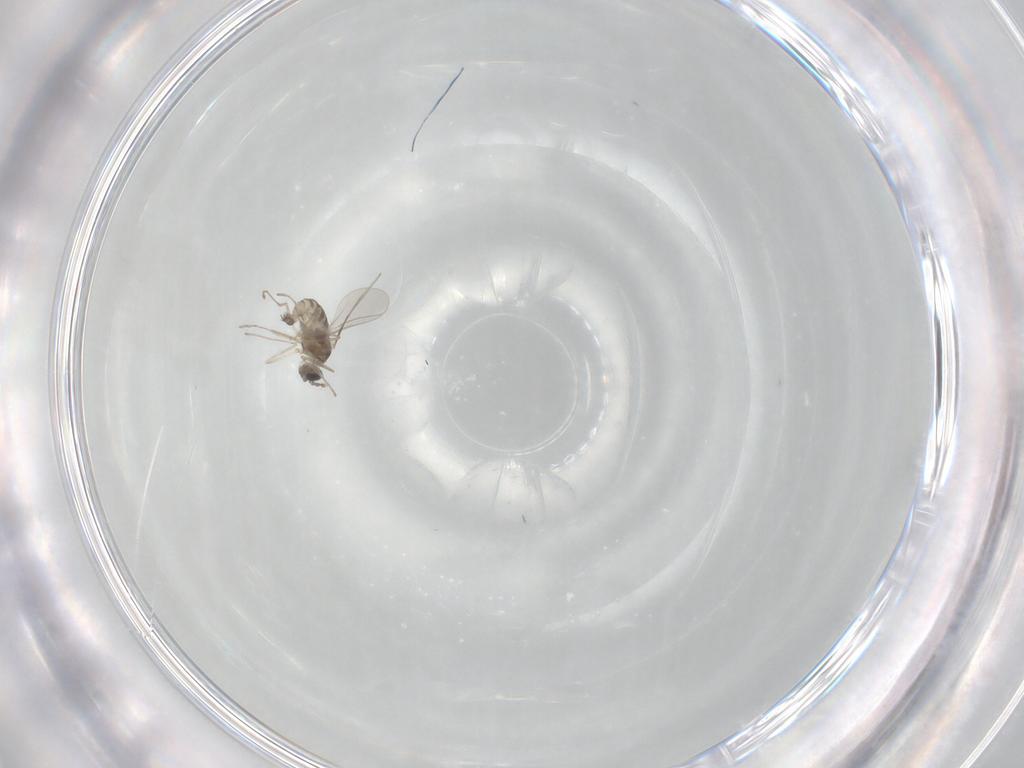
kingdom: Animalia
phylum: Arthropoda
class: Insecta
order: Diptera
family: Cecidomyiidae
